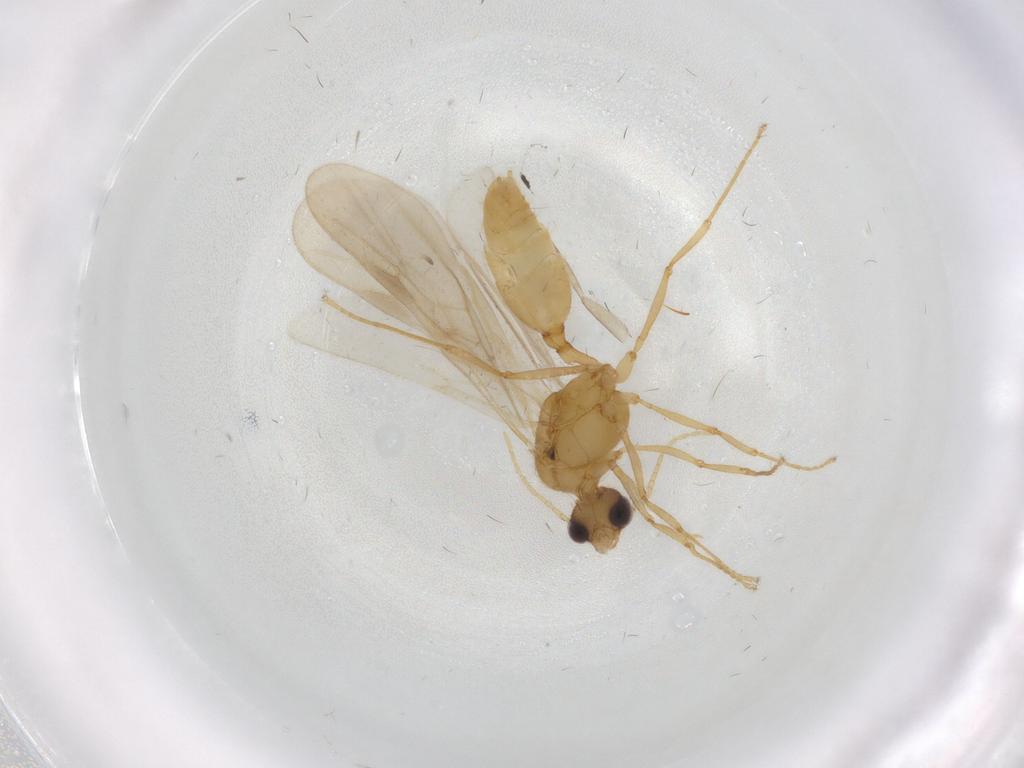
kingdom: Animalia
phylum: Arthropoda
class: Insecta
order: Hymenoptera
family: Formicidae
